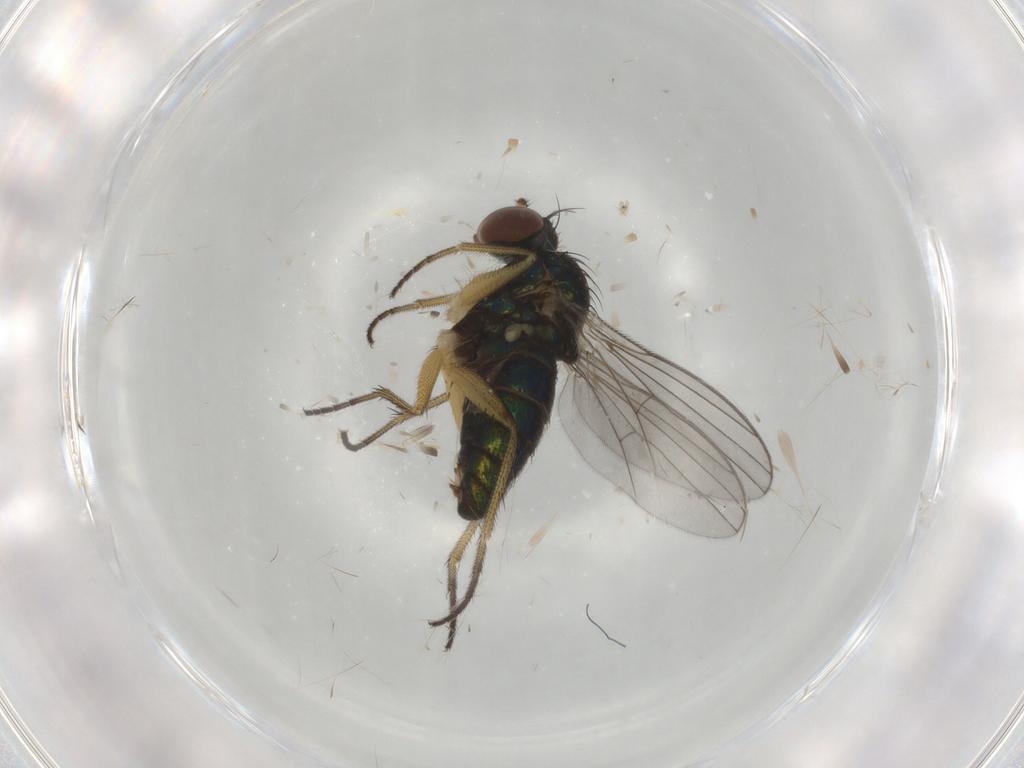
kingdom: Animalia
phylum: Arthropoda
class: Insecta
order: Diptera
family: Dolichopodidae
